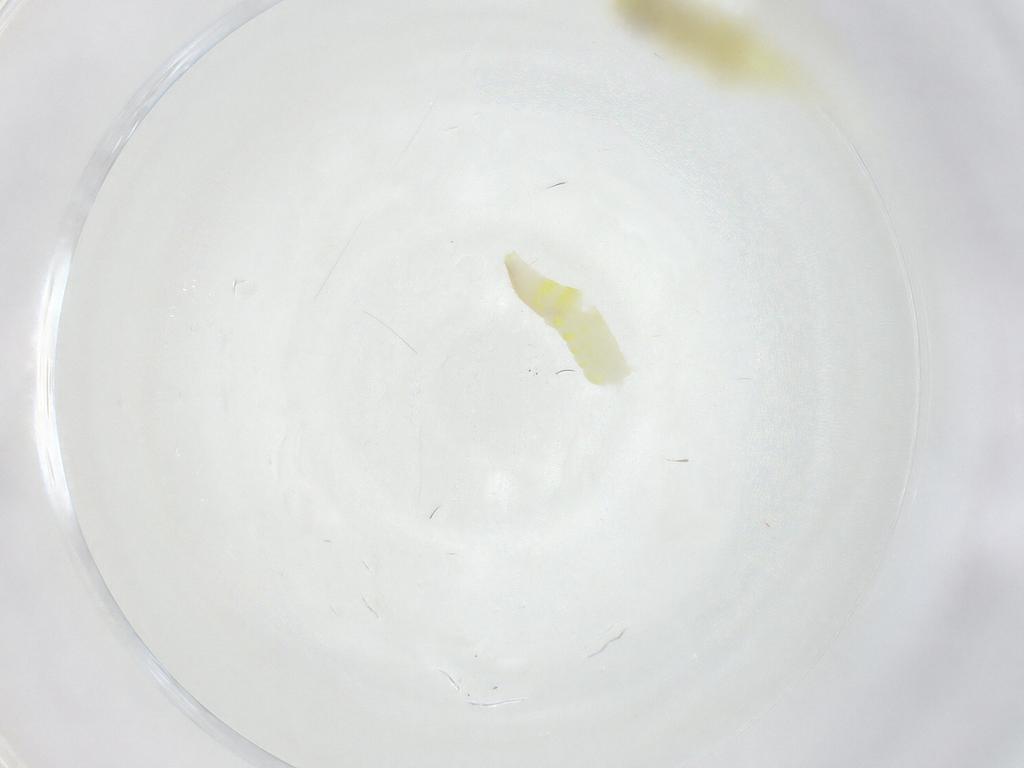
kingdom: Animalia
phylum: Arthropoda
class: Insecta
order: Hemiptera
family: Cicadellidae
